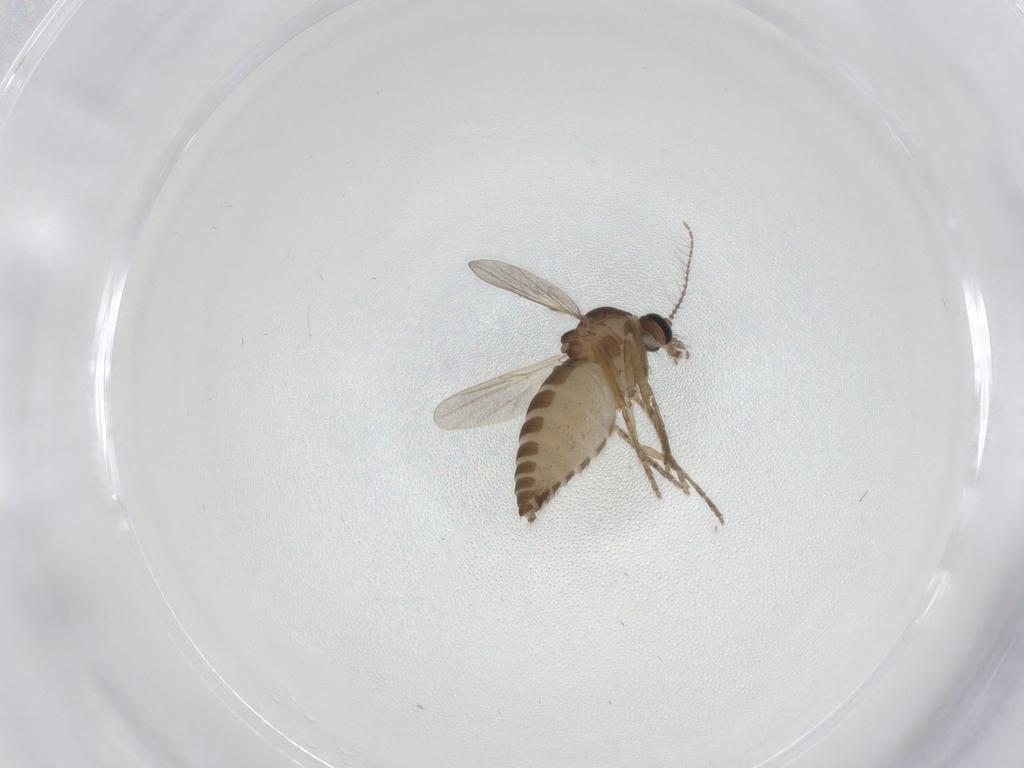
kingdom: Animalia
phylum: Arthropoda
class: Insecta
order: Diptera
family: Ceratopogonidae
